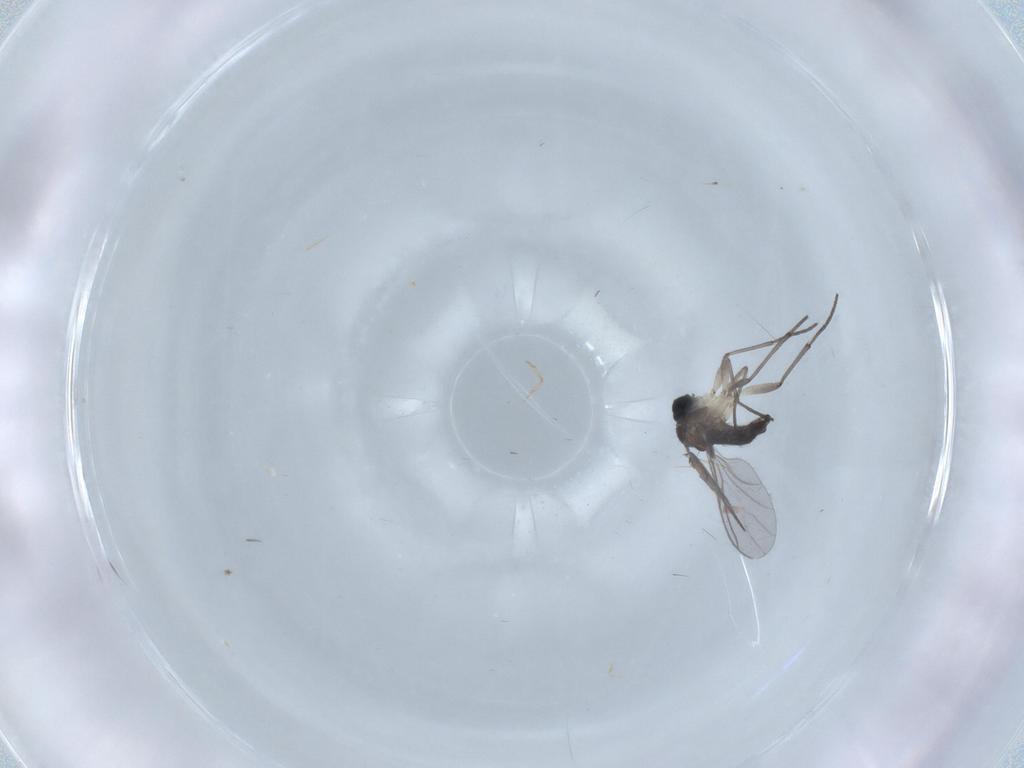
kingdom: Animalia
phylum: Arthropoda
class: Insecta
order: Diptera
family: Sciaridae
